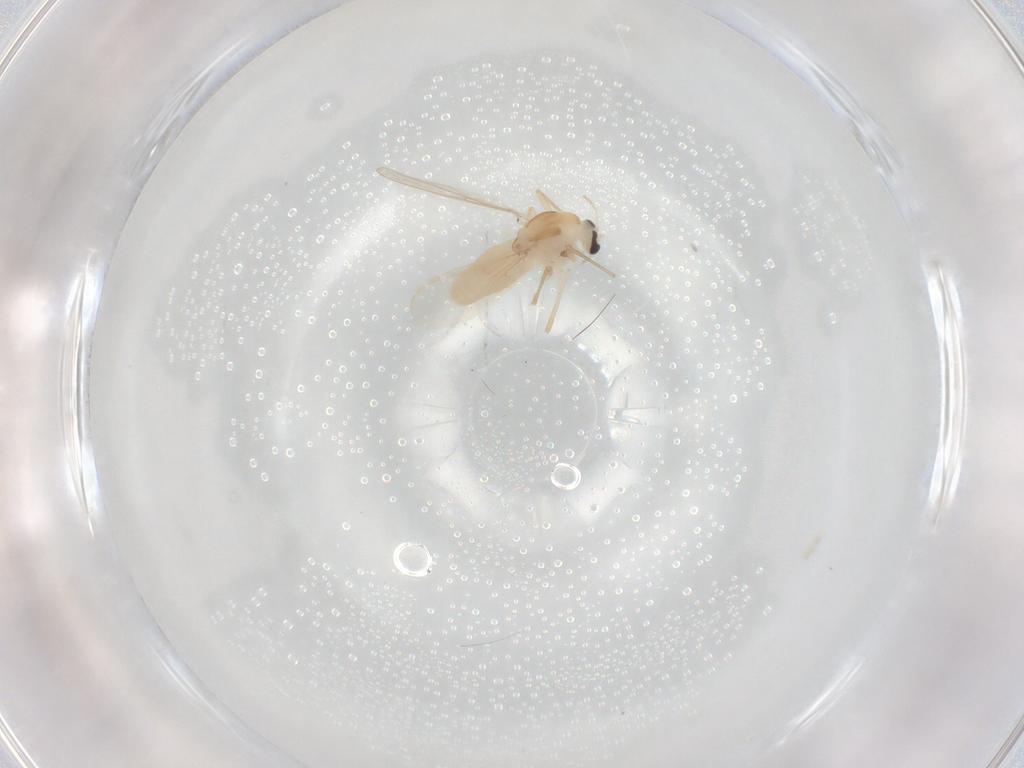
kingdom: Animalia
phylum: Arthropoda
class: Insecta
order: Diptera
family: Chironomidae
